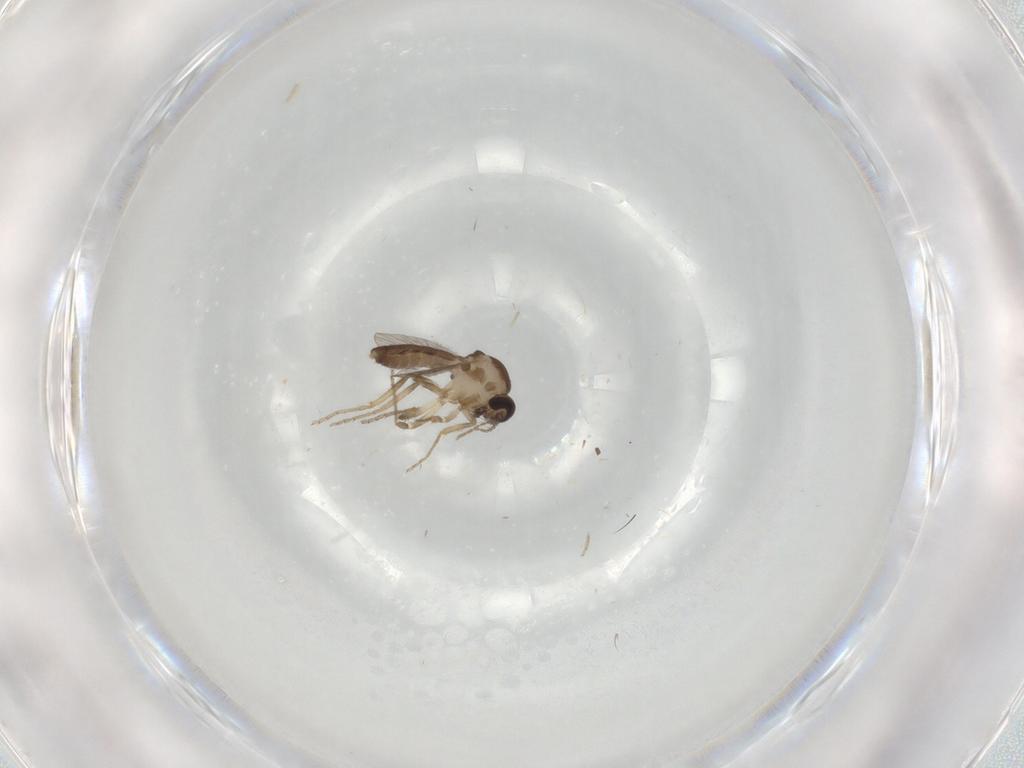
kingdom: Animalia
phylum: Arthropoda
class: Insecta
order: Diptera
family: Ceratopogonidae
